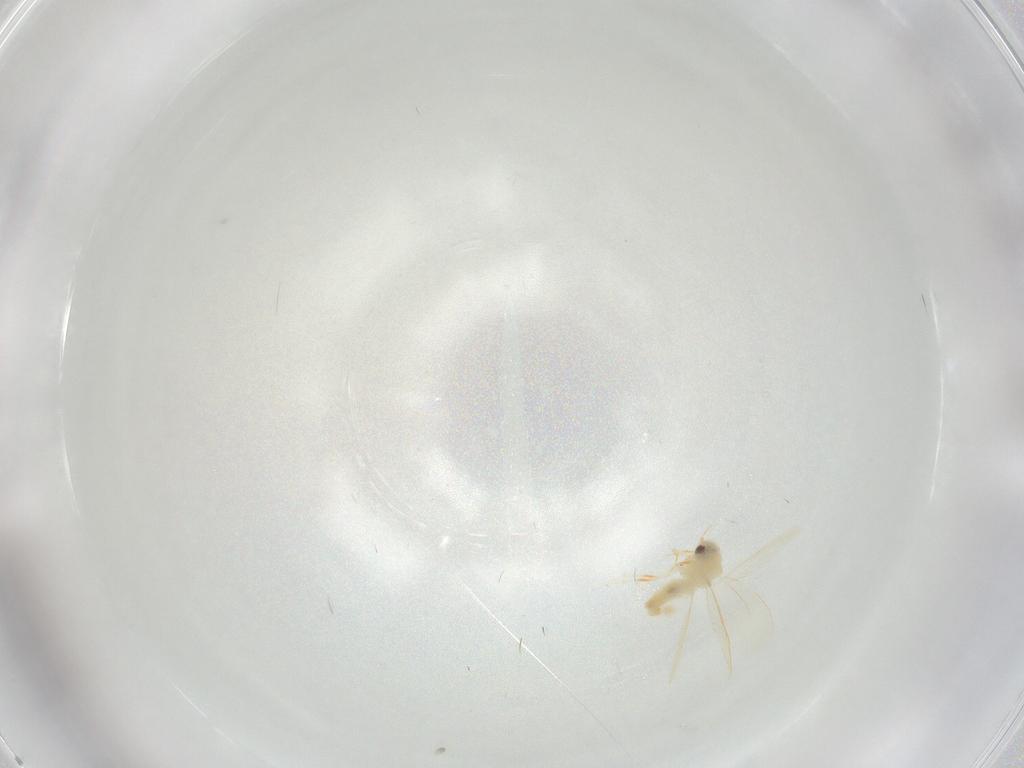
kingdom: Animalia
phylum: Arthropoda
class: Insecta
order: Hemiptera
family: Aleyrodidae
